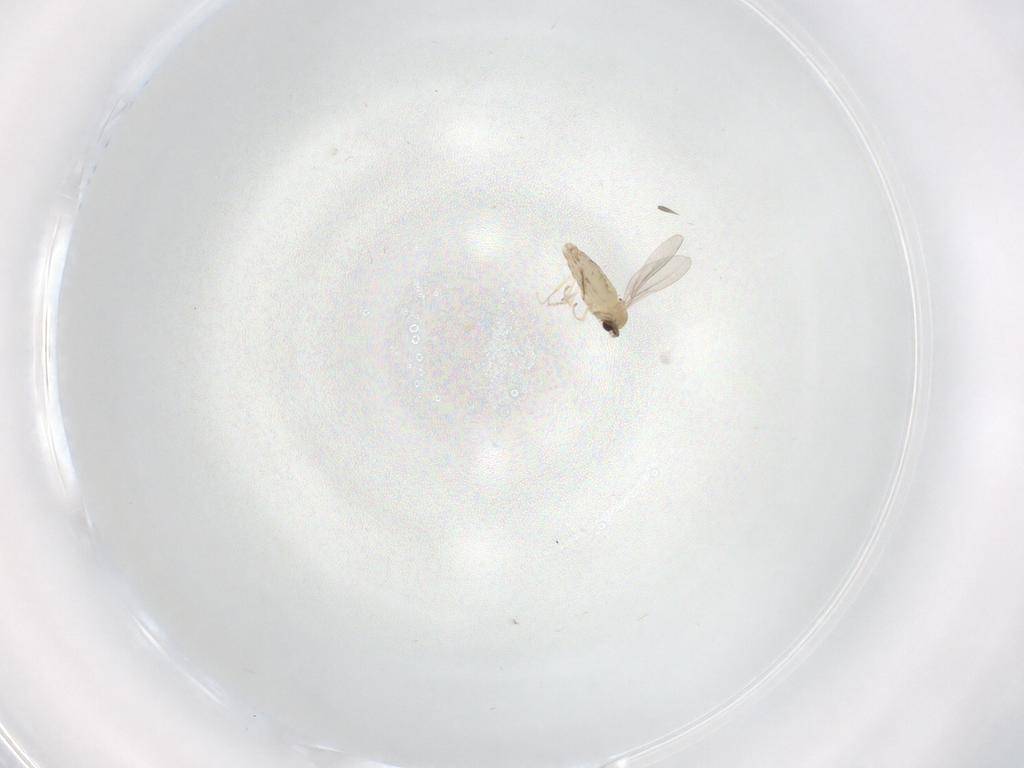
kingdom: Animalia
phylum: Arthropoda
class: Insecta
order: Diptera
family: Cecidomyiidae
